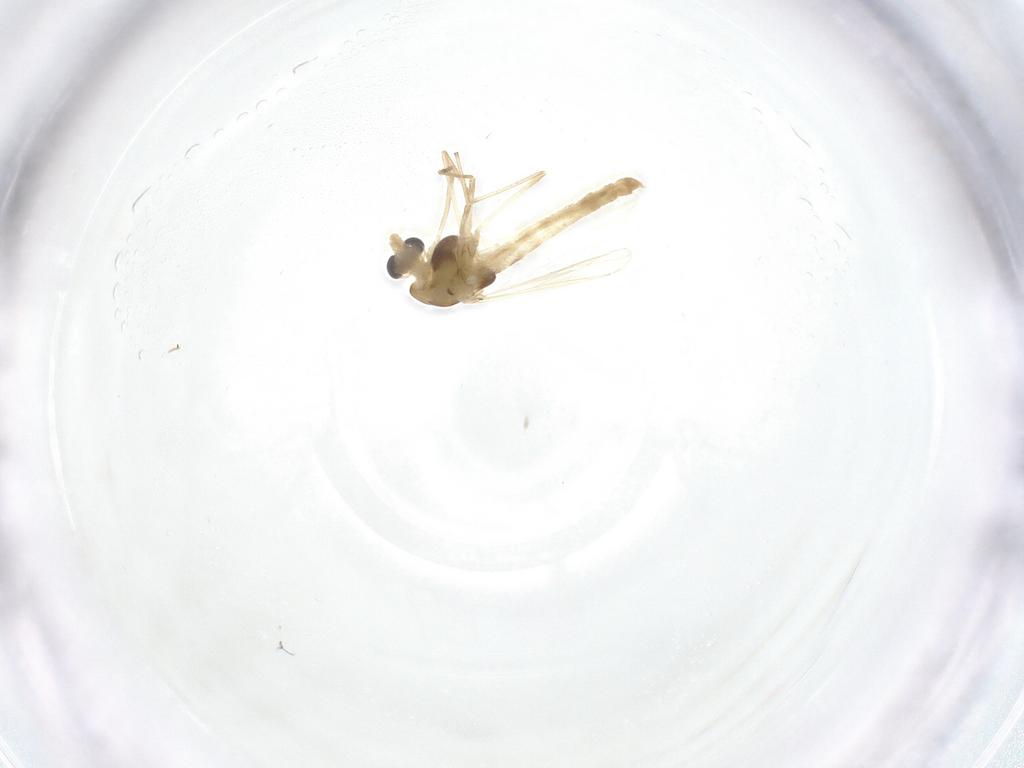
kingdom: Animalia
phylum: Arthropoda
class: Insecta
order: Diptera
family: Chironomidae
